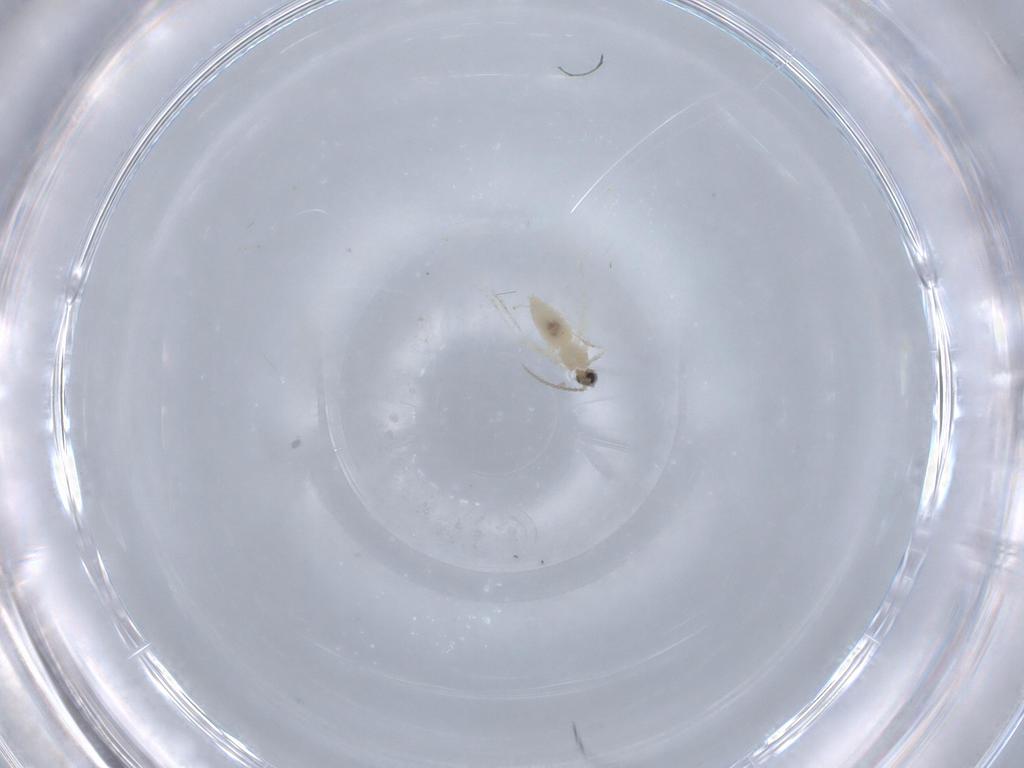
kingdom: Animalia
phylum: Arthropoda
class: Insecta
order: Diptera
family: Cecidomyiidae
